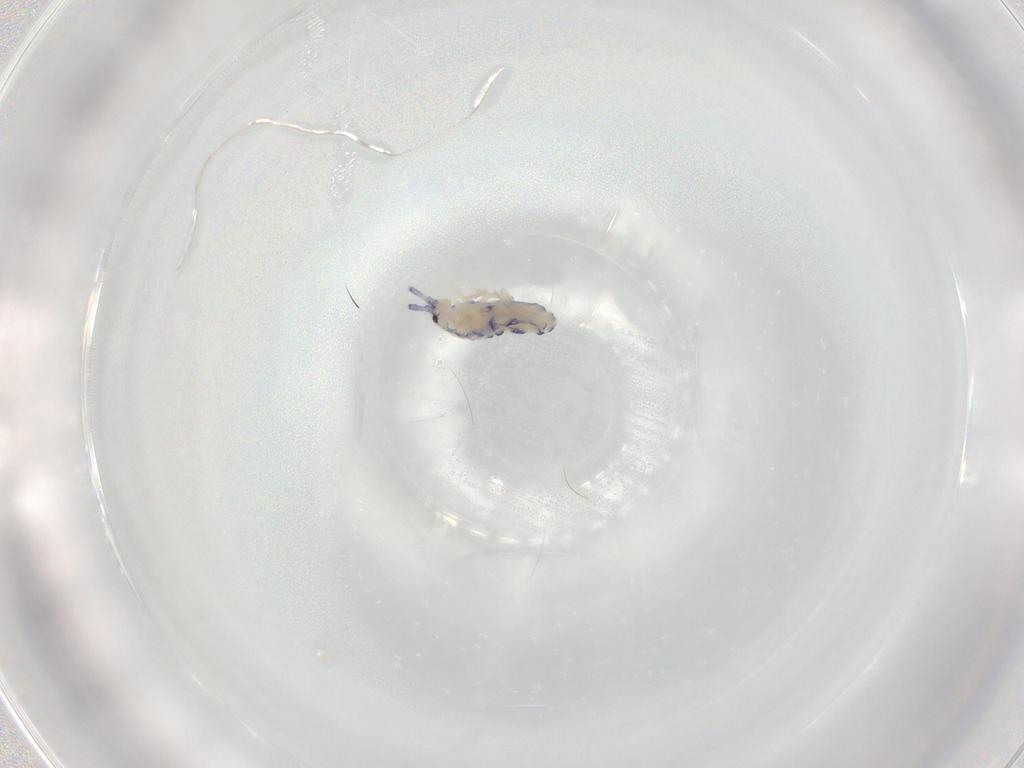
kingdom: Animalia
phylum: Arthropoda
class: Collembola
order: Entomobryomorpha
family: Entomobryidae
